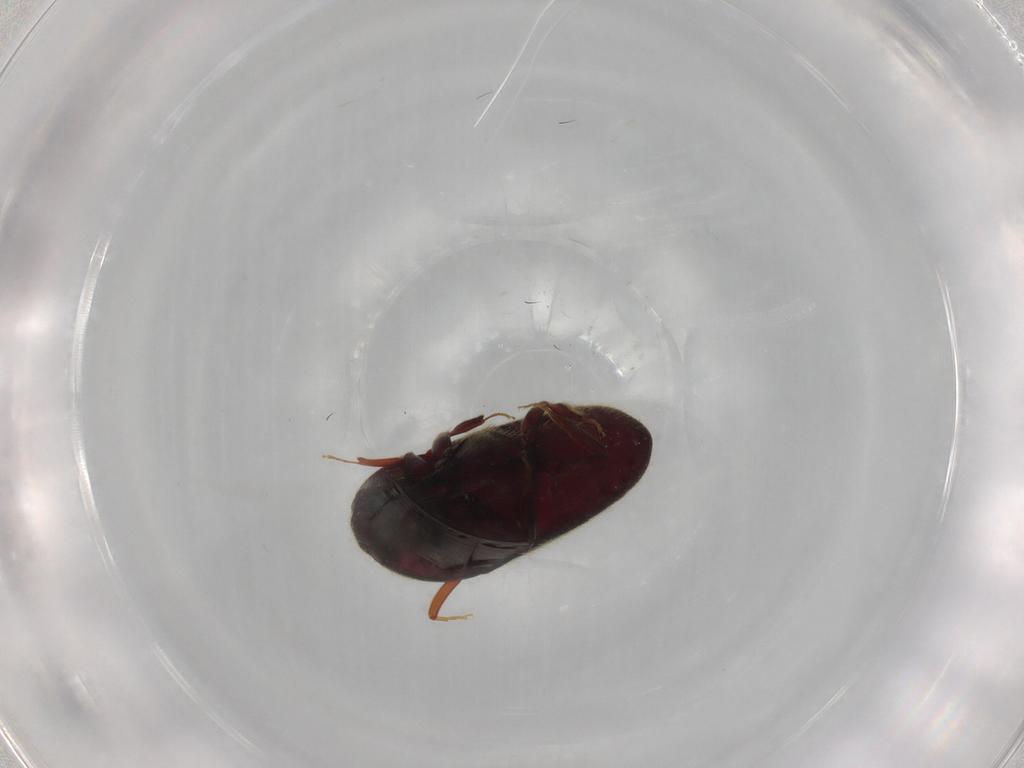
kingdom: Animalia
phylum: Arthropoda
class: Insecta
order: Coleoptera
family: Throscidae
